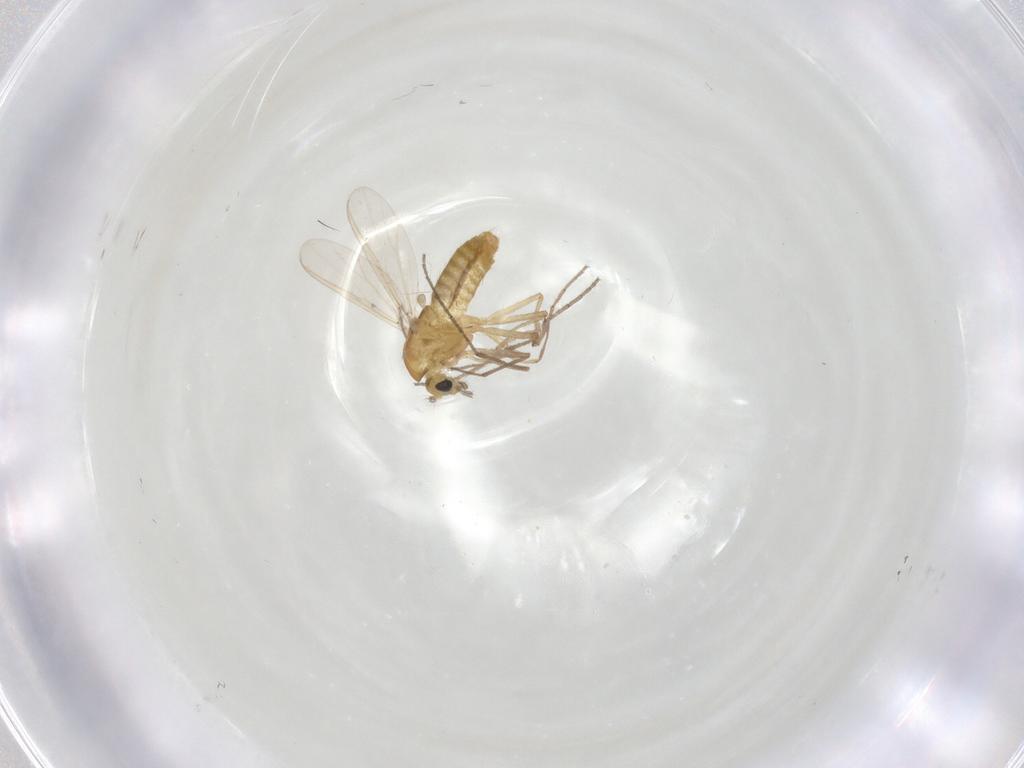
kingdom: Animalia
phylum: Arthropoda
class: Insecta
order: Diptera
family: Chironomidae
